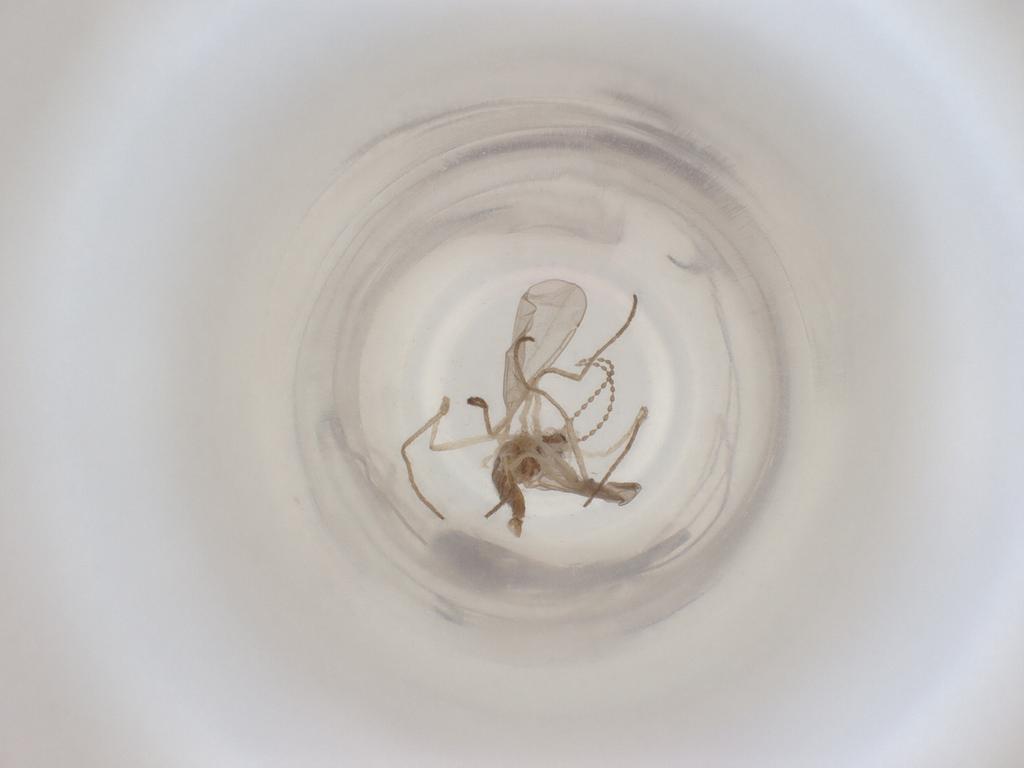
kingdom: Animalia
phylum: Arthropoda
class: Insecta
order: Diptera
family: Cecidomyiidae
